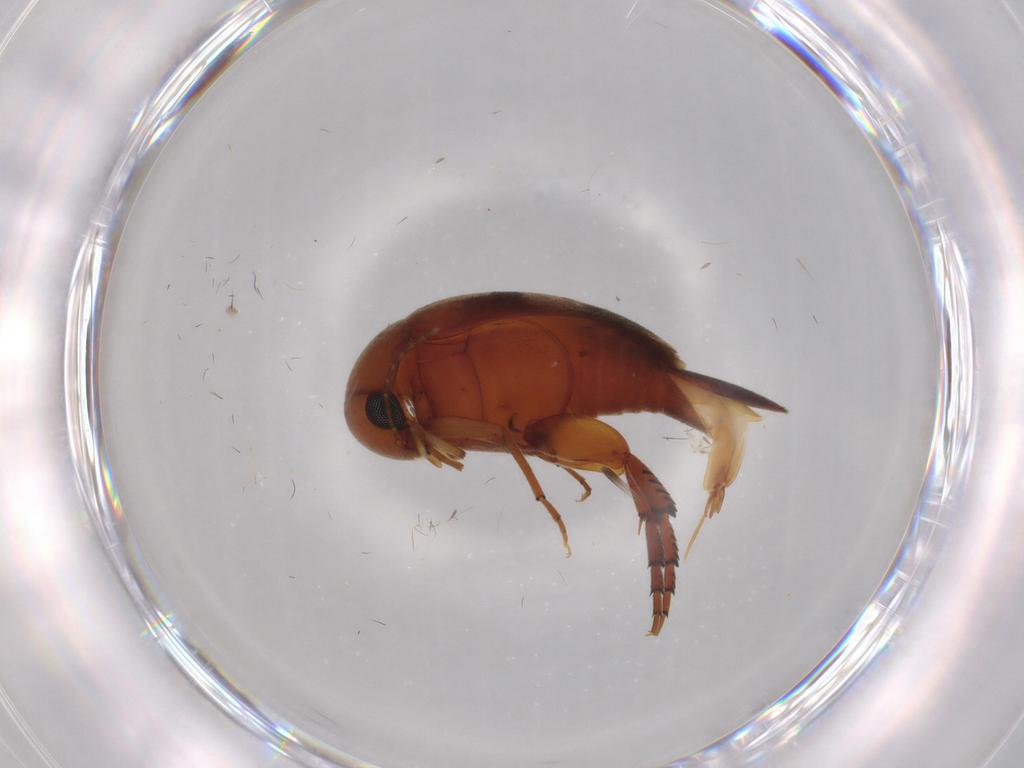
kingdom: Animalia
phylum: Arthropoda
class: Insecta
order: Coleoptera
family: Mordellidae
